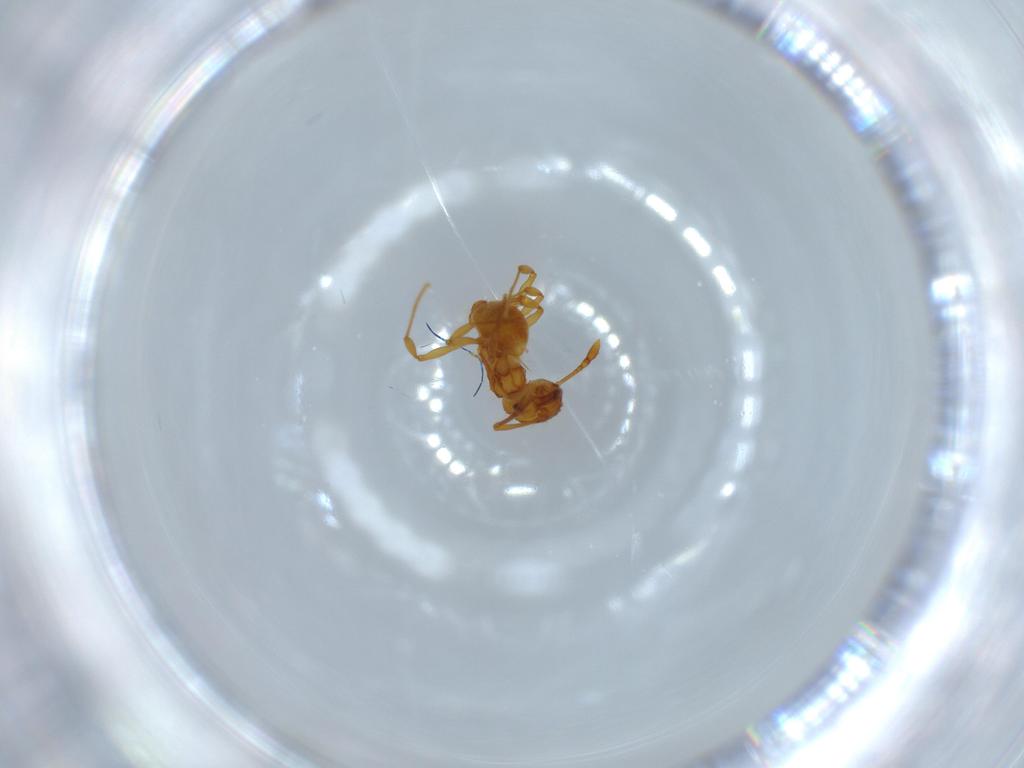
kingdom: Animalia
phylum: Arthropoda
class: Insecta
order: Hymenoptera
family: Formicidae
